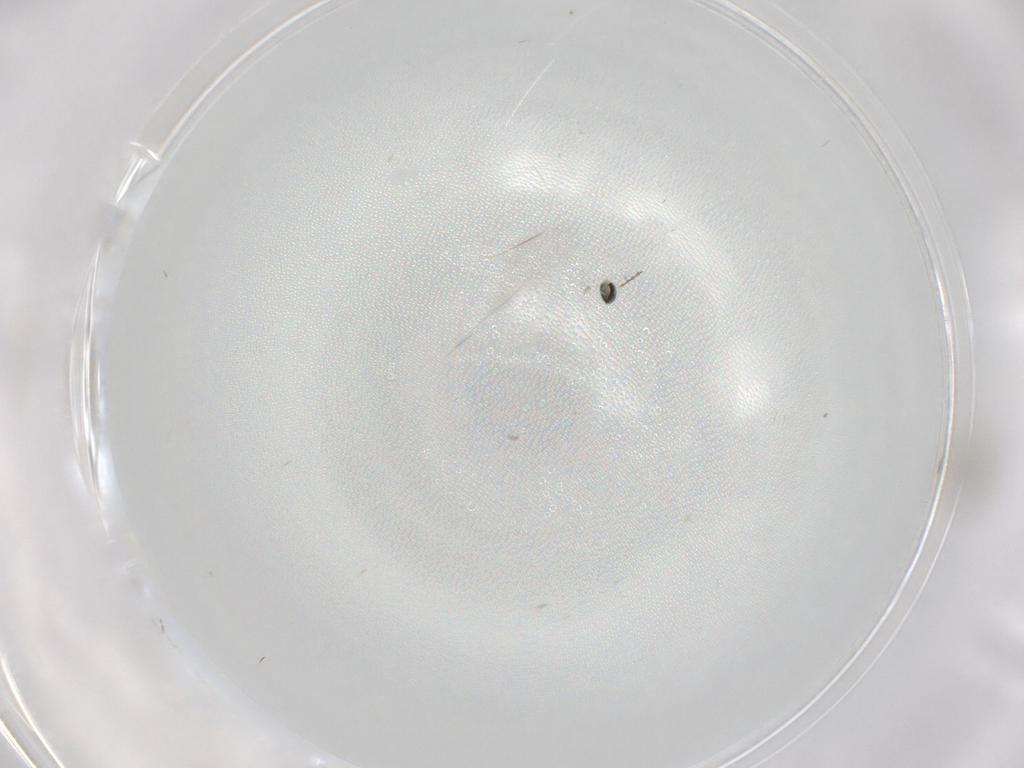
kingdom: Animalia
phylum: Arthropoda
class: Insecta
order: Diptera
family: Cecidomyiidae
